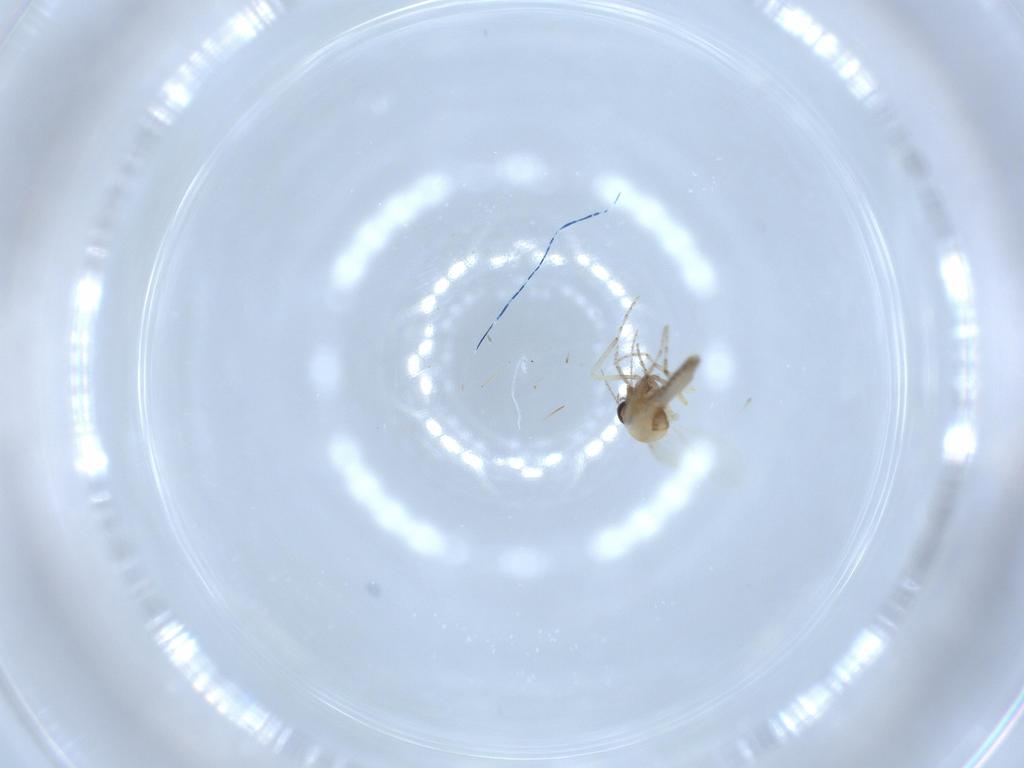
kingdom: Animalia
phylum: Arthropoda
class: Insecta
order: Diptera
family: Ceratopogonidae
